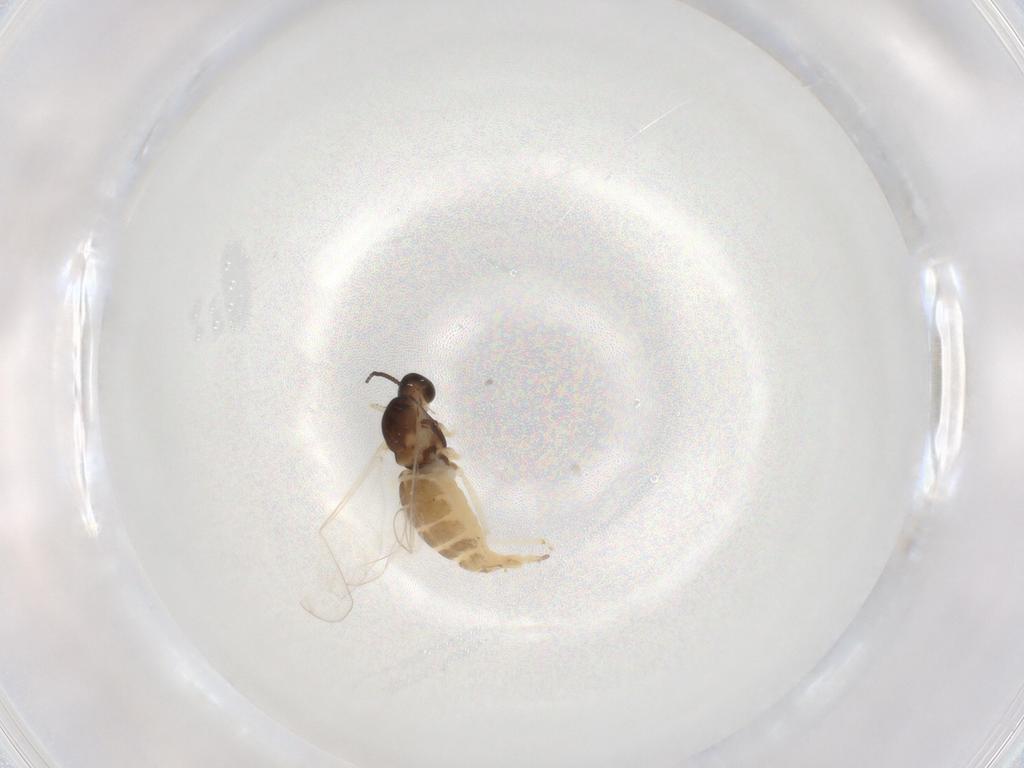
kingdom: Animalia
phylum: Arthropoda
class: Insecta
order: Diptera
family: Cecidomyiidae
